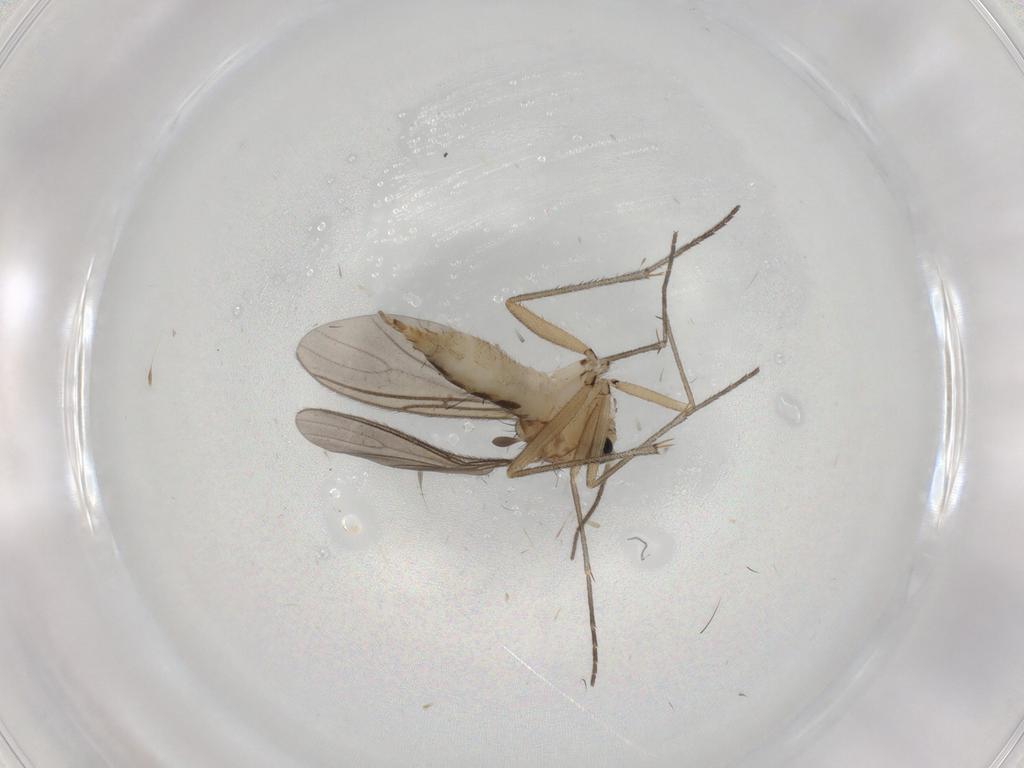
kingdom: Animalia
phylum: Arthropoda
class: Insecta
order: Diptera
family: Sciaridae
